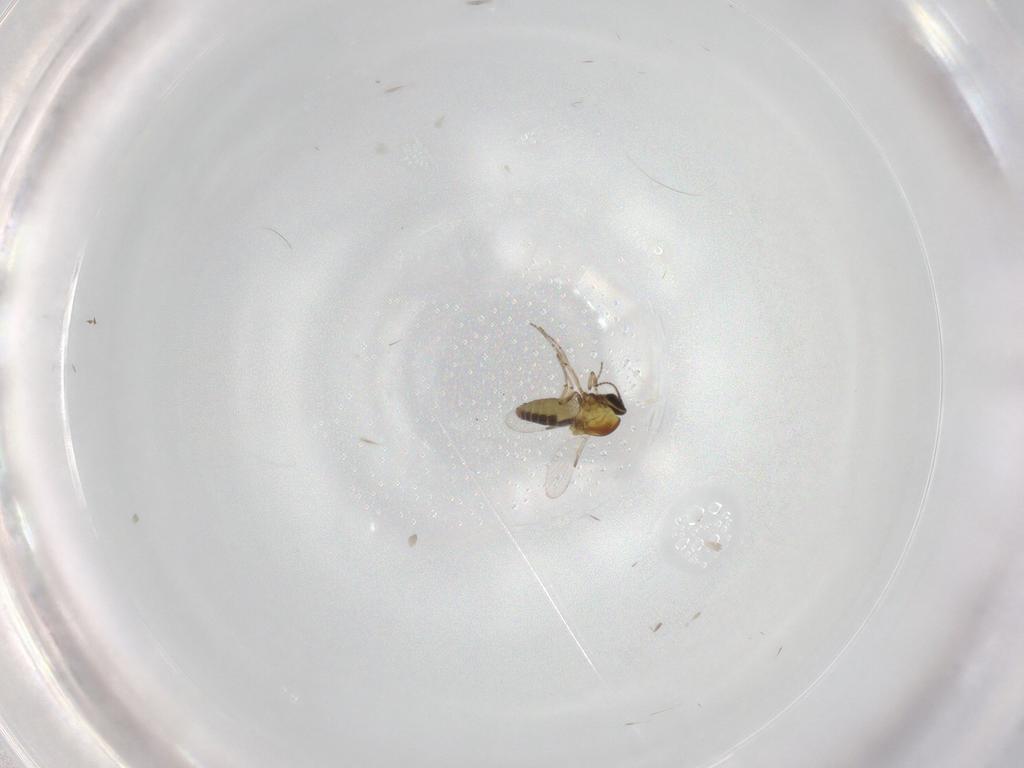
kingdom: Animalia
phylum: Arthropoda
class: Insecta
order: Diptera
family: Ceratopogonidae
